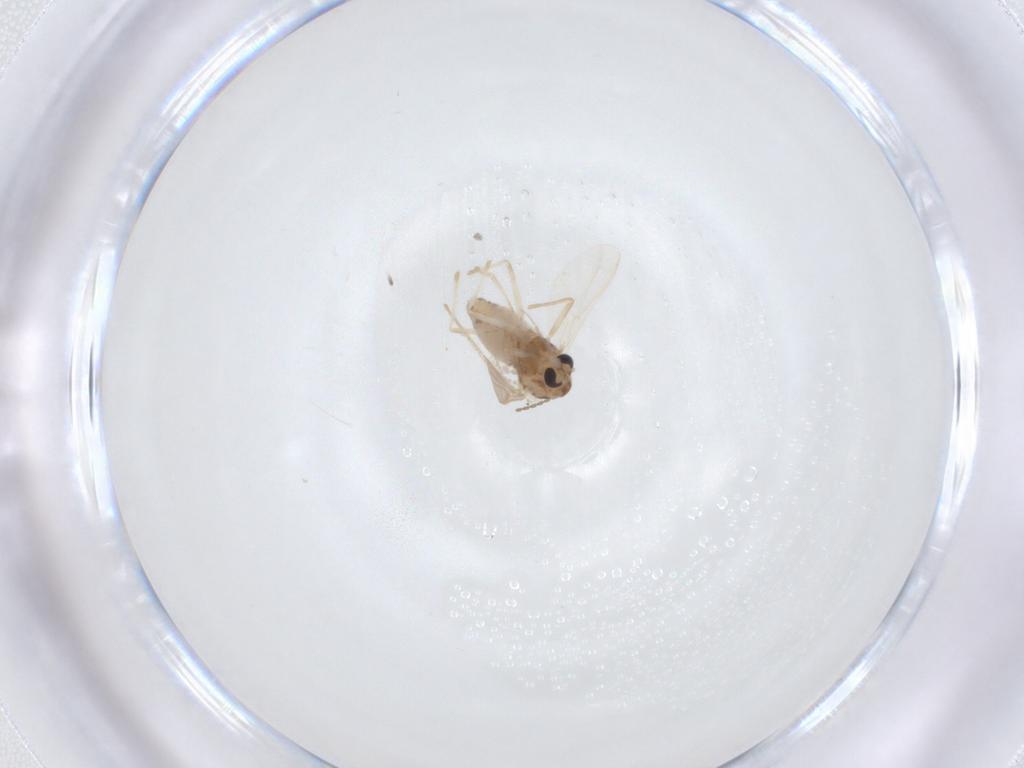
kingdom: Animalia
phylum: Arthropoda
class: Insecta
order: Diptera
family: Cecidomyiidae
